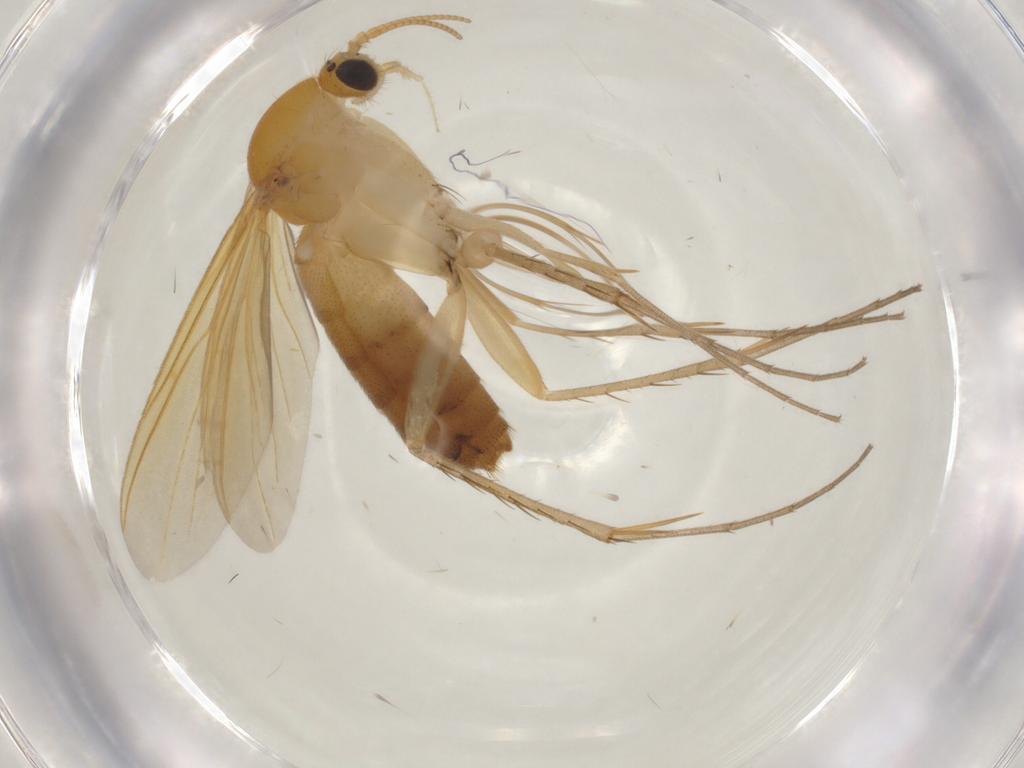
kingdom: Animalia
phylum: Arthropoda
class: Insecta
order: Diptera
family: Mycetophilidae
